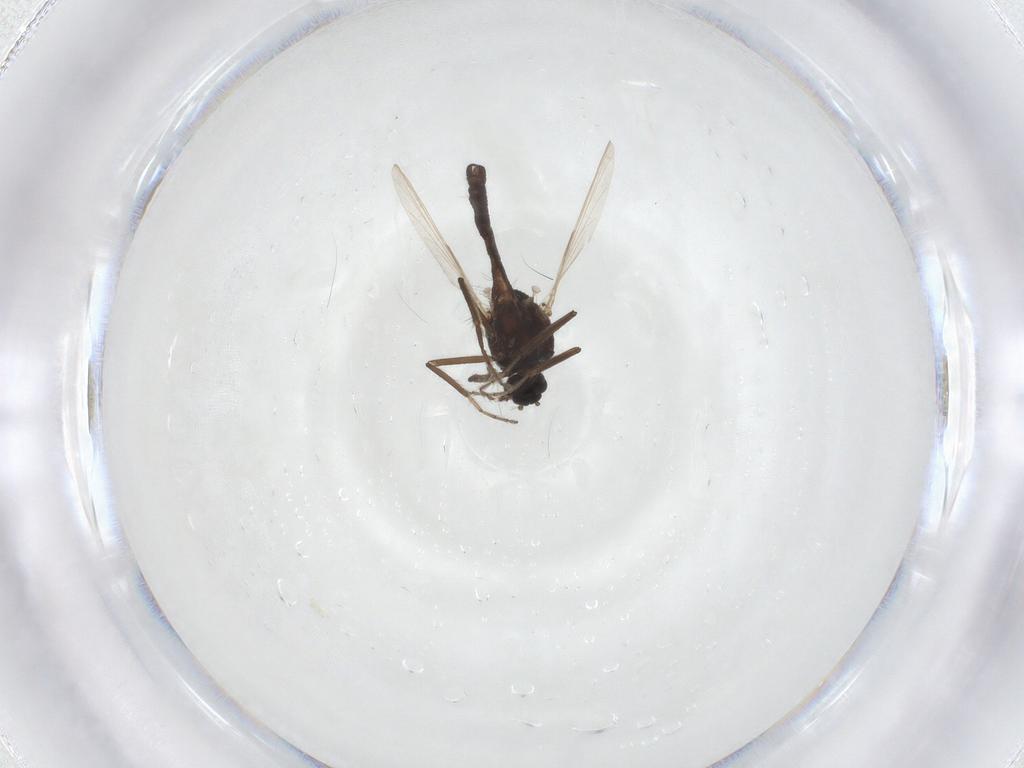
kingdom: Animalia
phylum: Arthropoda
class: Insecta
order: Diptera
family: Ceratopogonidae
